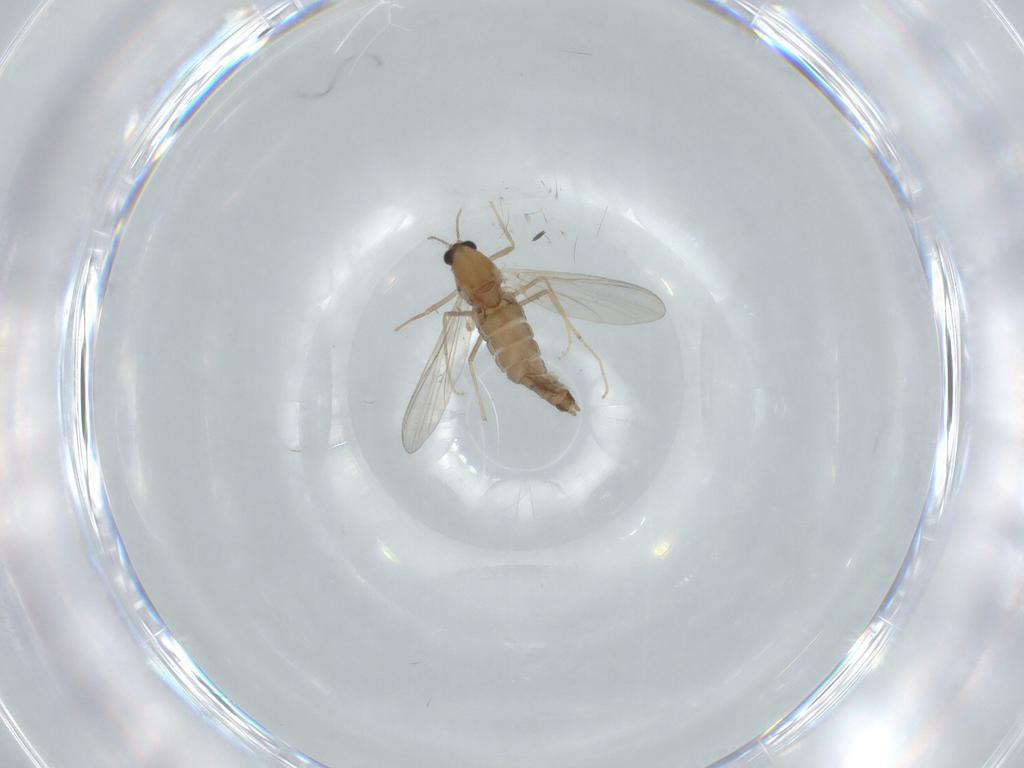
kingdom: Animalia
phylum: Arthropoda
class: Insecta
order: Diptera
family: Chironomidae
